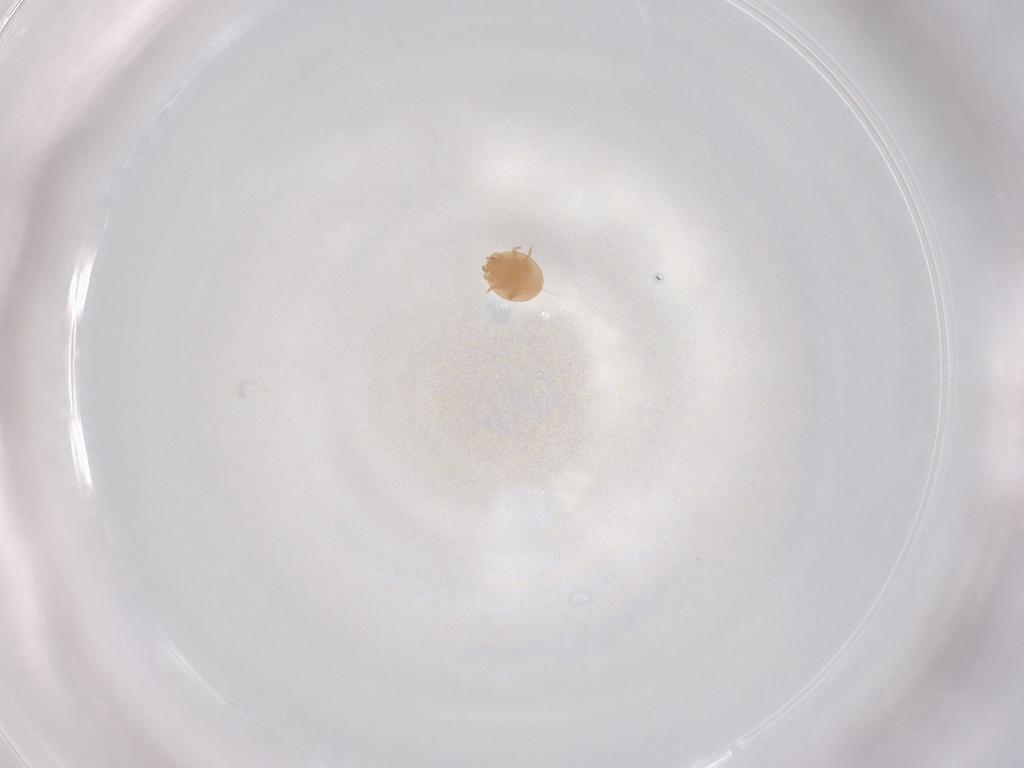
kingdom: Animalia
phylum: Arthropoda
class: Arachnida
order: Mesostigmata
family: Trematuridae
